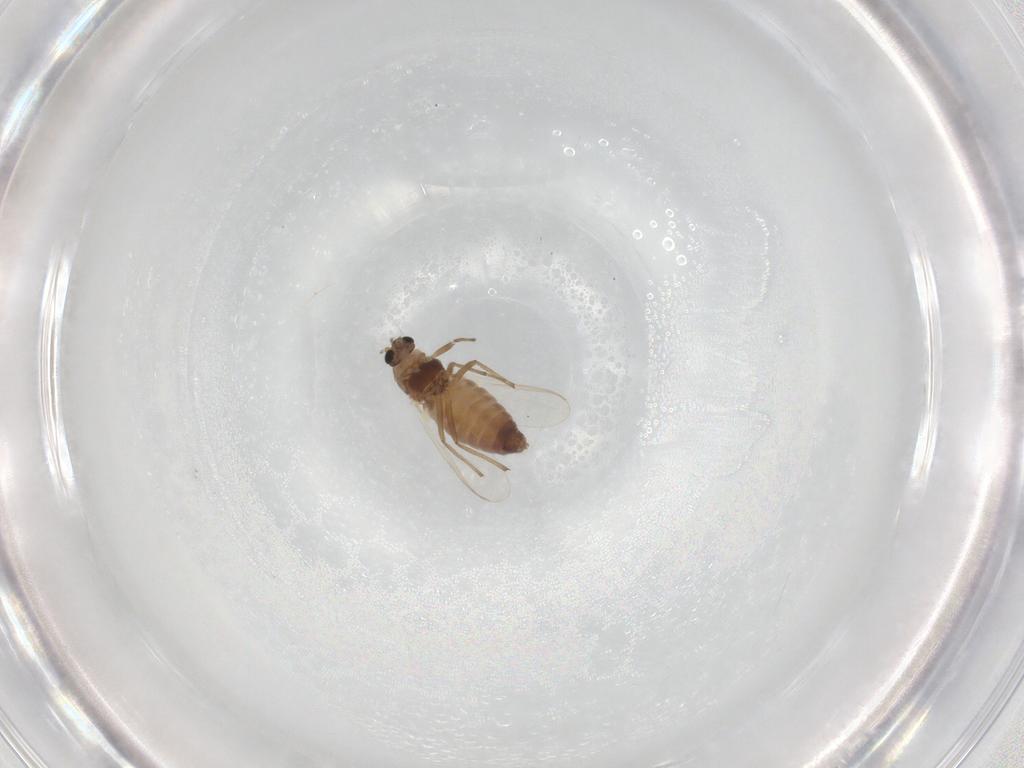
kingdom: Animalia
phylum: Arthropoda
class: Insecta
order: Diptera
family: Chironomidae
